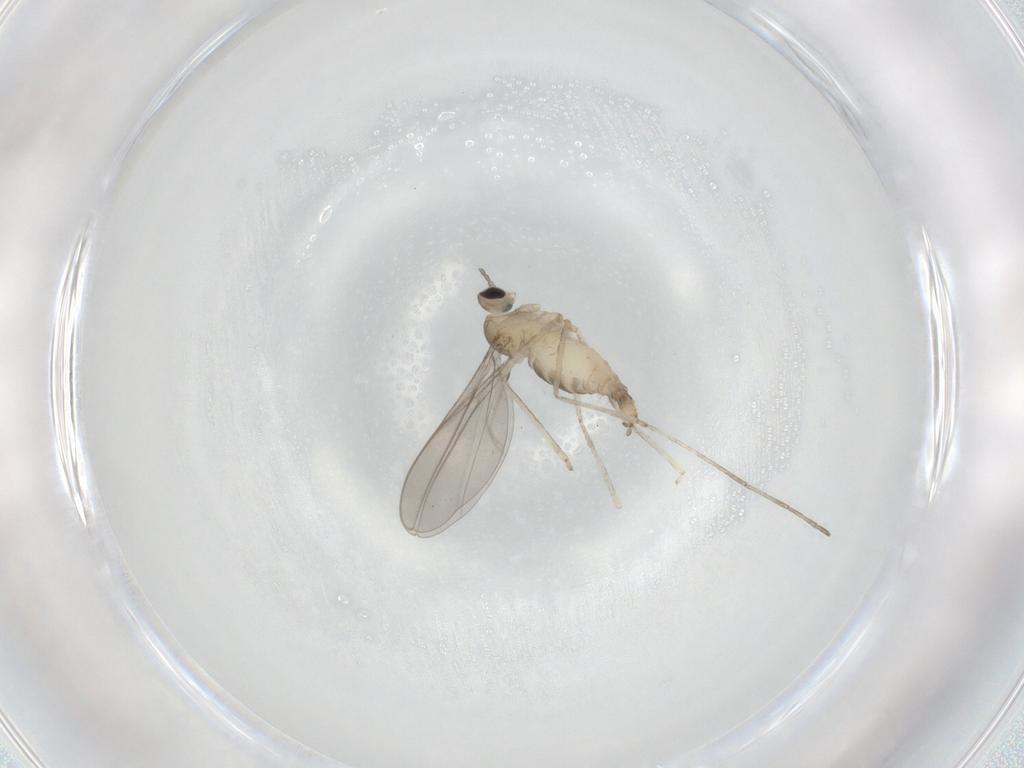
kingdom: Animalia
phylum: Arthropoda
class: Insecta
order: Diptera
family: Cecidomyiidae
